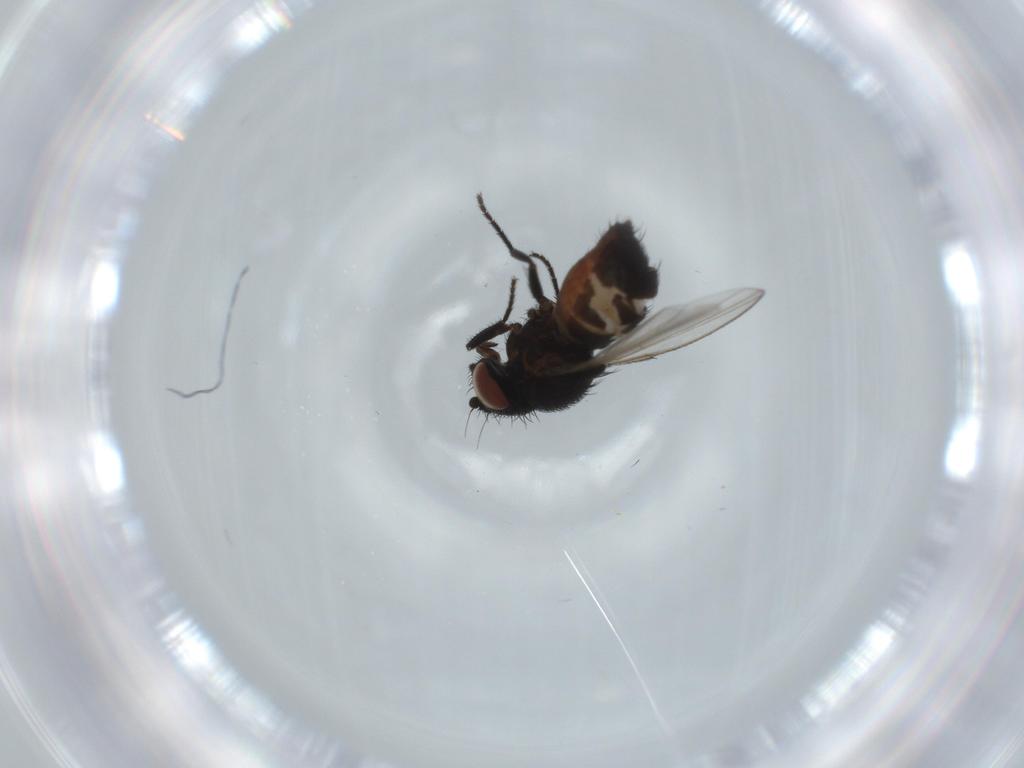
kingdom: Animalia
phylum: Arthropoda
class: Insecta
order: Diptera
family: Milichiidae
